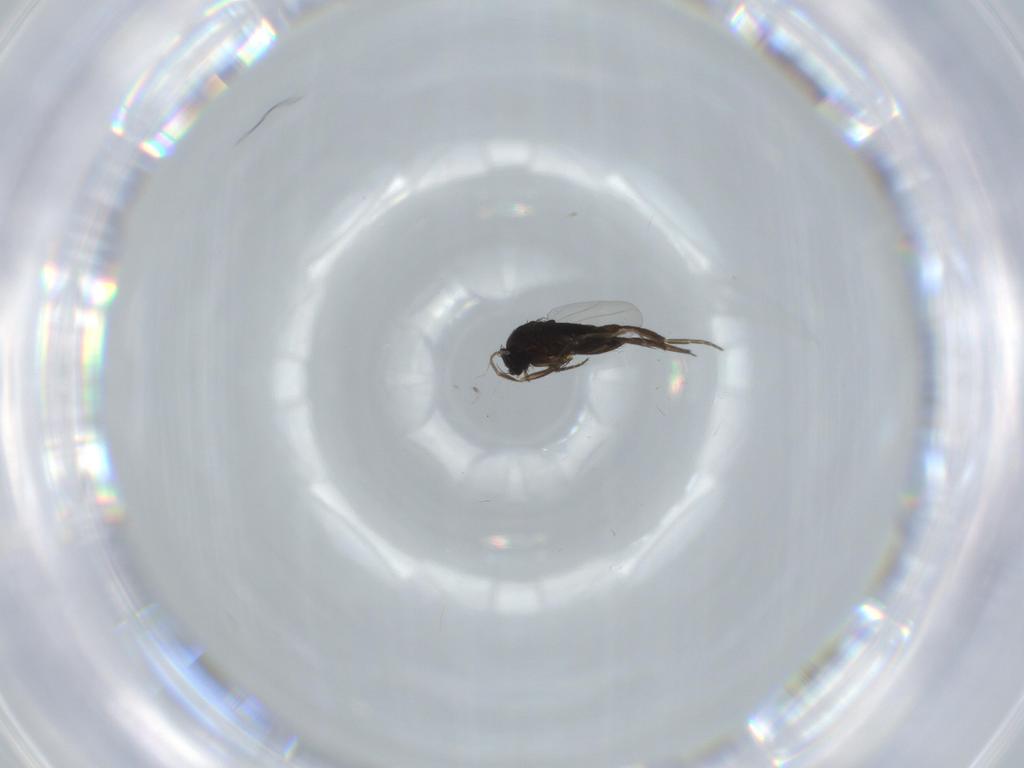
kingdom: Animalia
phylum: Arthropoda
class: Insecta
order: Diptera
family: Phoridae
